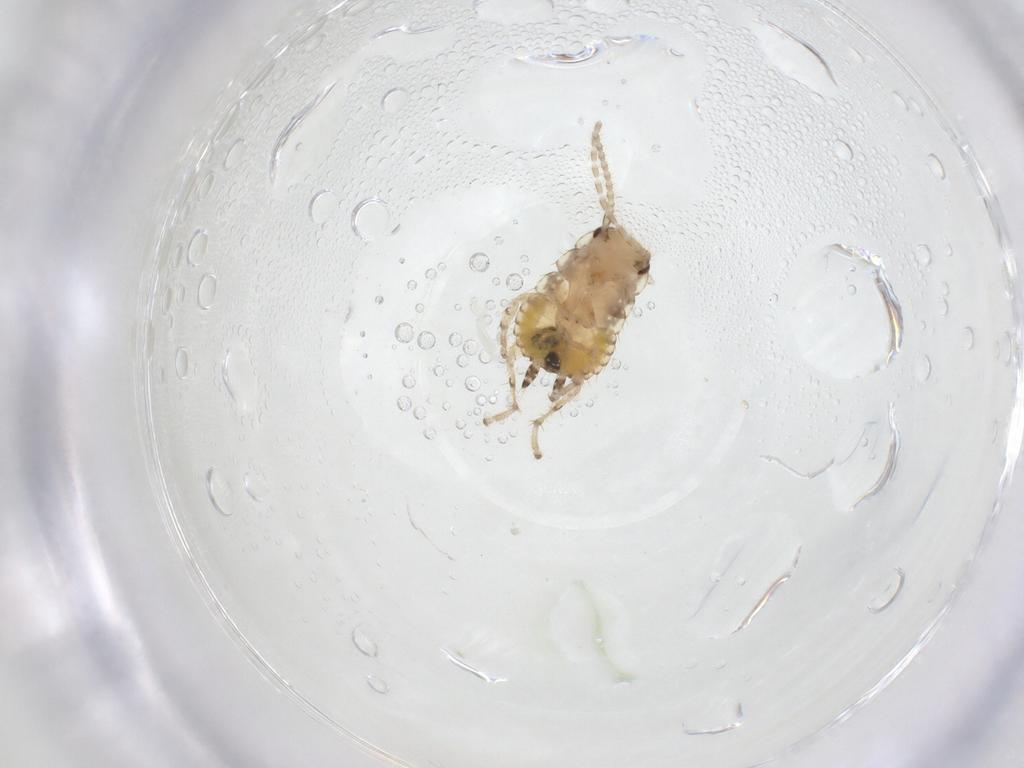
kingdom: Animalia
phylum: Arthropoda
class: Insecta
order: Blattodea
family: Ectobiidae
